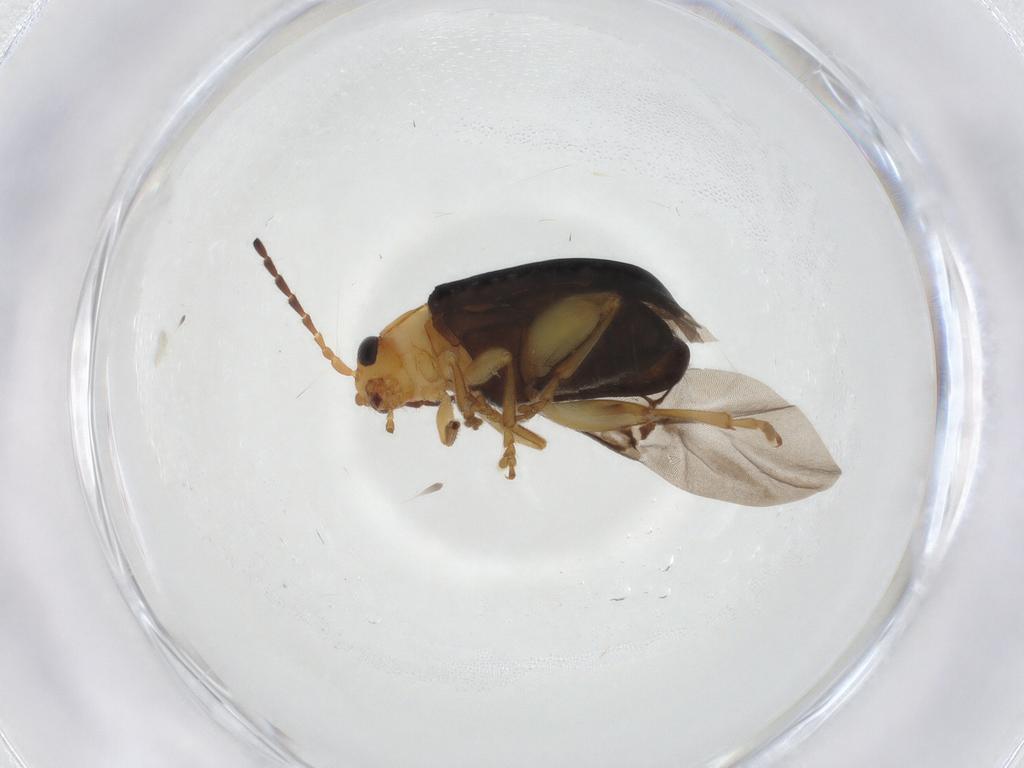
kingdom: Animalia
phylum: Arthropoda
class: Insecta
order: Coleoptera
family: Chrysomelidae
